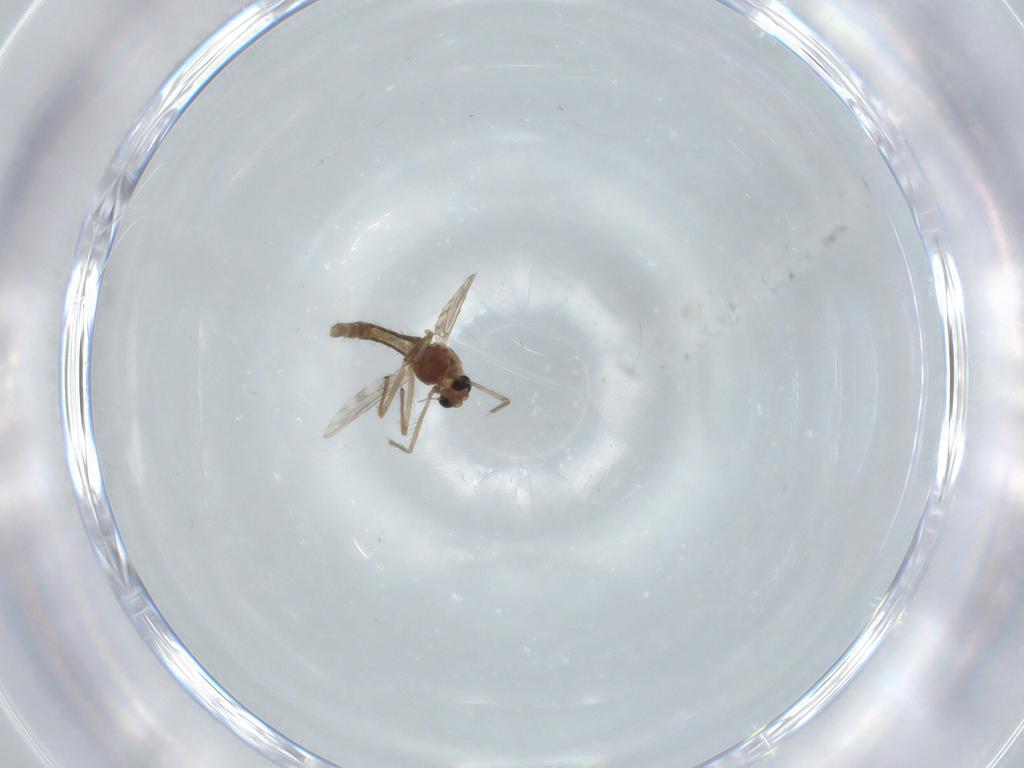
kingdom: Animalia
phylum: Arthropoda
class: Insecta
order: Diptera
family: Chironomidae
